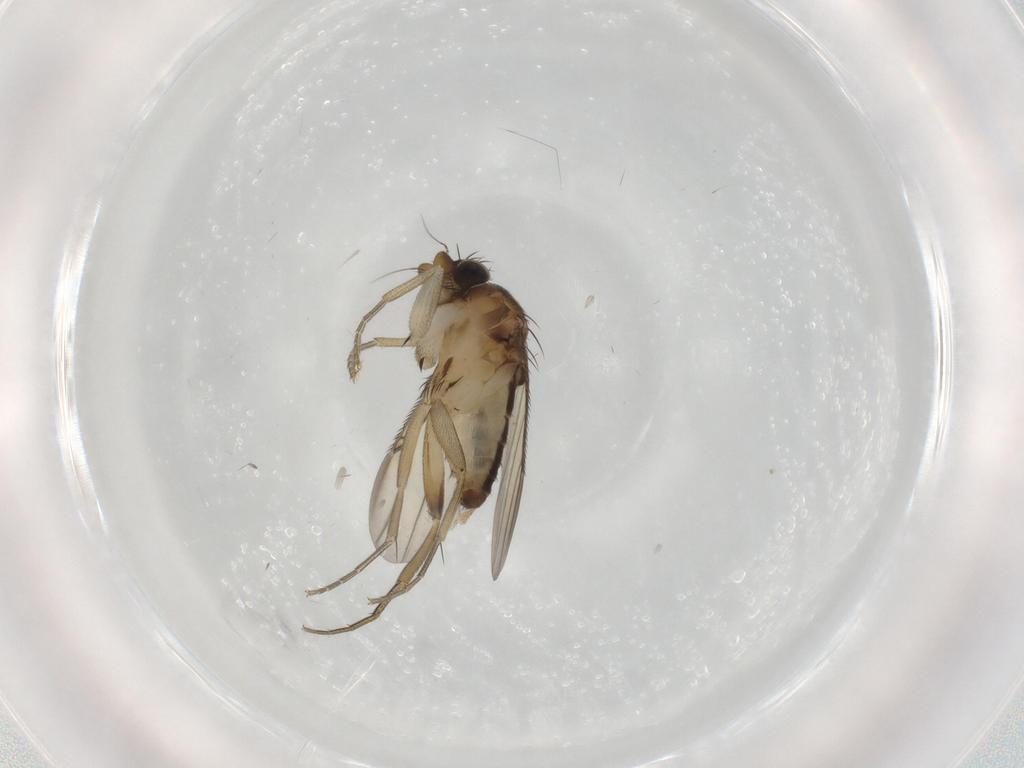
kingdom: Animalia
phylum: Arthropoda
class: Insecta
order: Diptera
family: Phoridae
